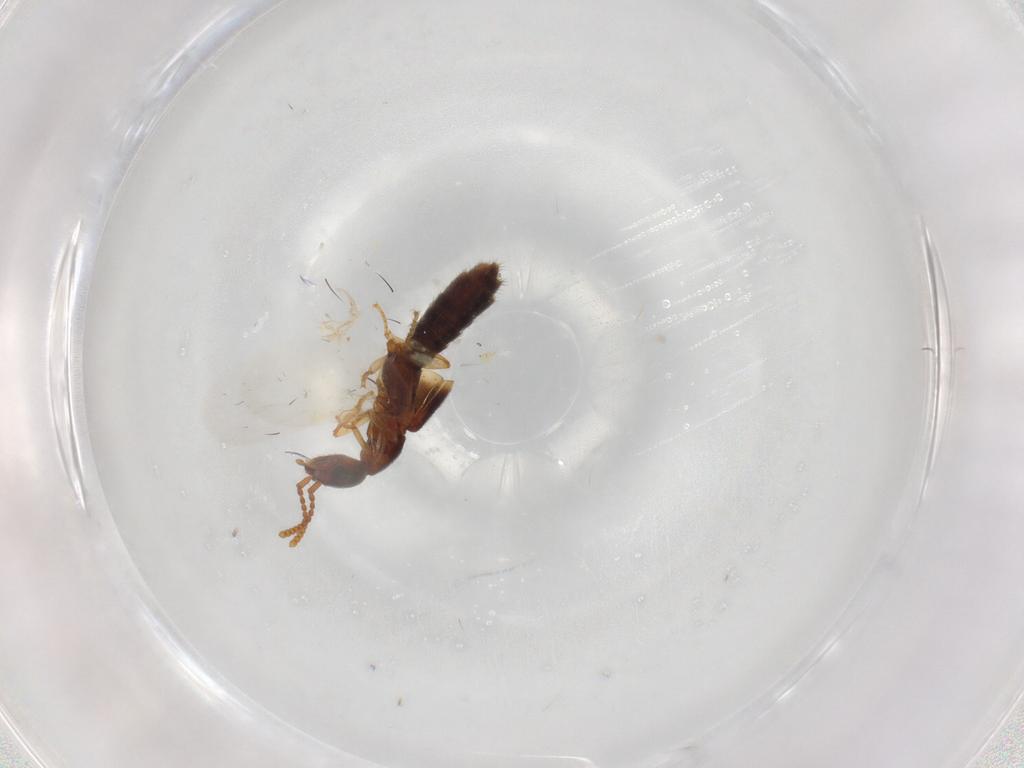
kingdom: Animalia
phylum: Arthropoda
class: Insecta
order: Coleoptera
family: Staphylinidae
